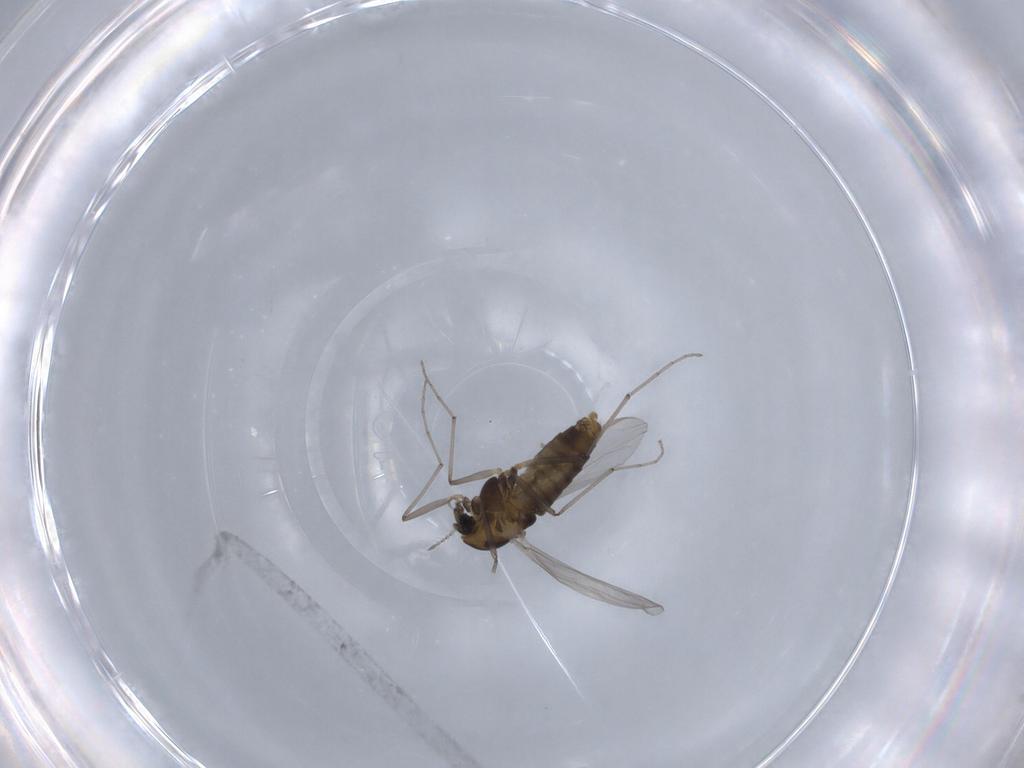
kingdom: Animalia
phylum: Arthropoda
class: Insecta
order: Diptera
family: Chironomidae
